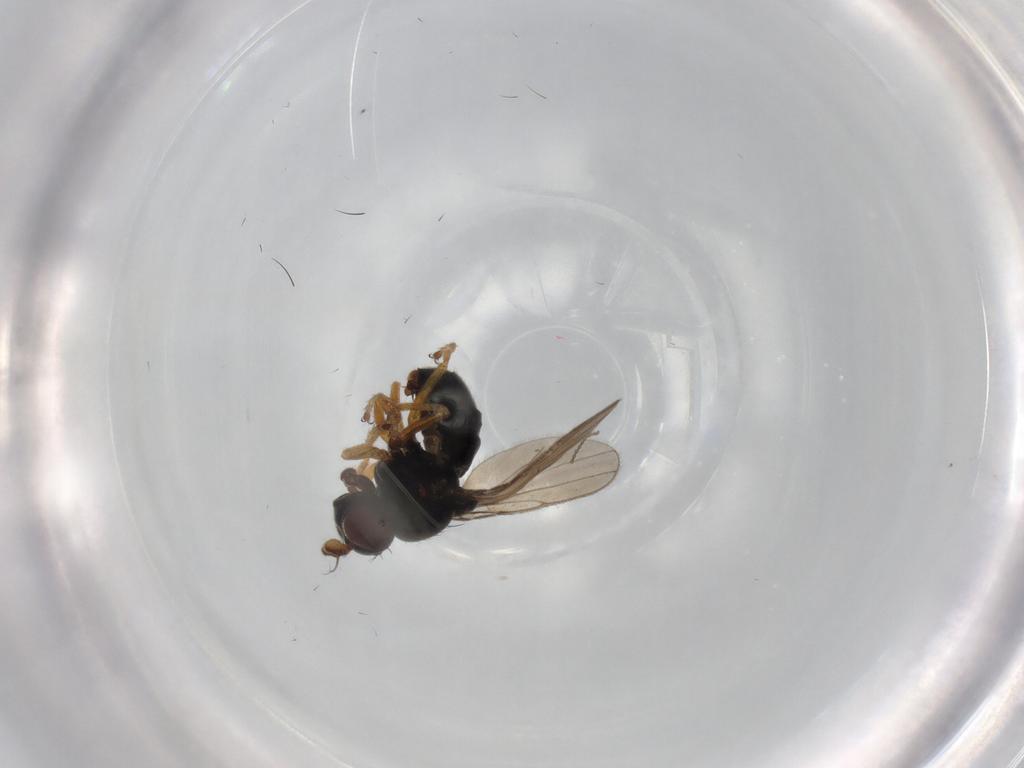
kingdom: Animalia
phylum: Arthropoda
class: Insecta
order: Diptera
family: Ephydridae
